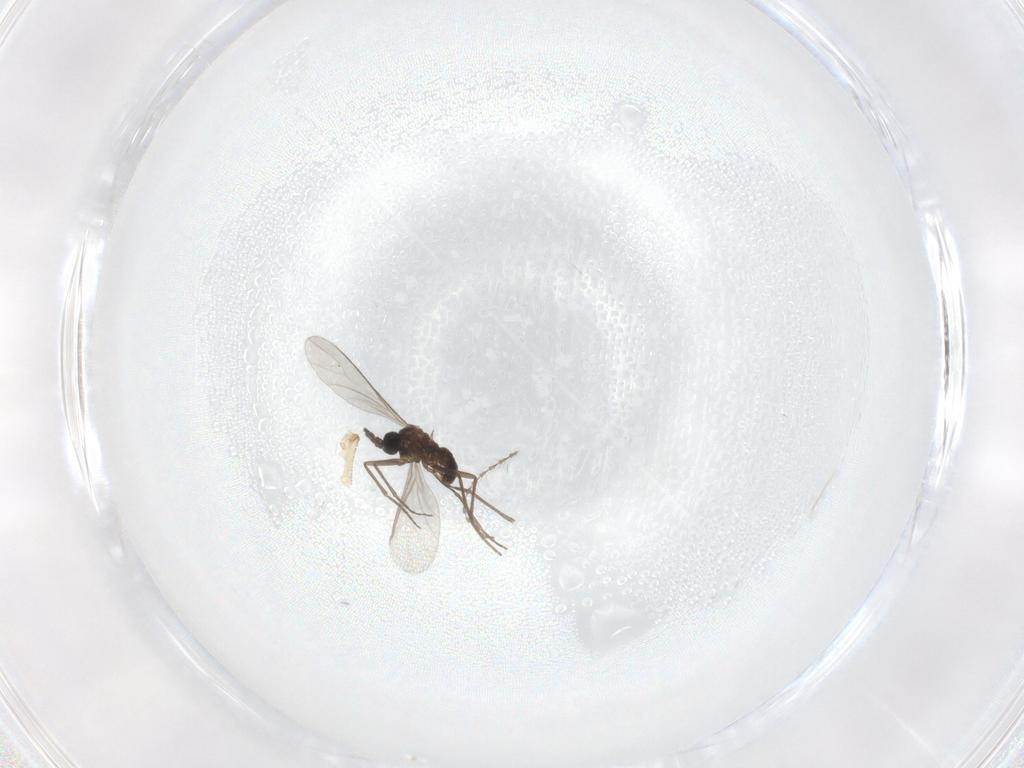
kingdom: Animalia
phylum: Arthropoda
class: Insecta
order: Diptera
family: Sciaridae
